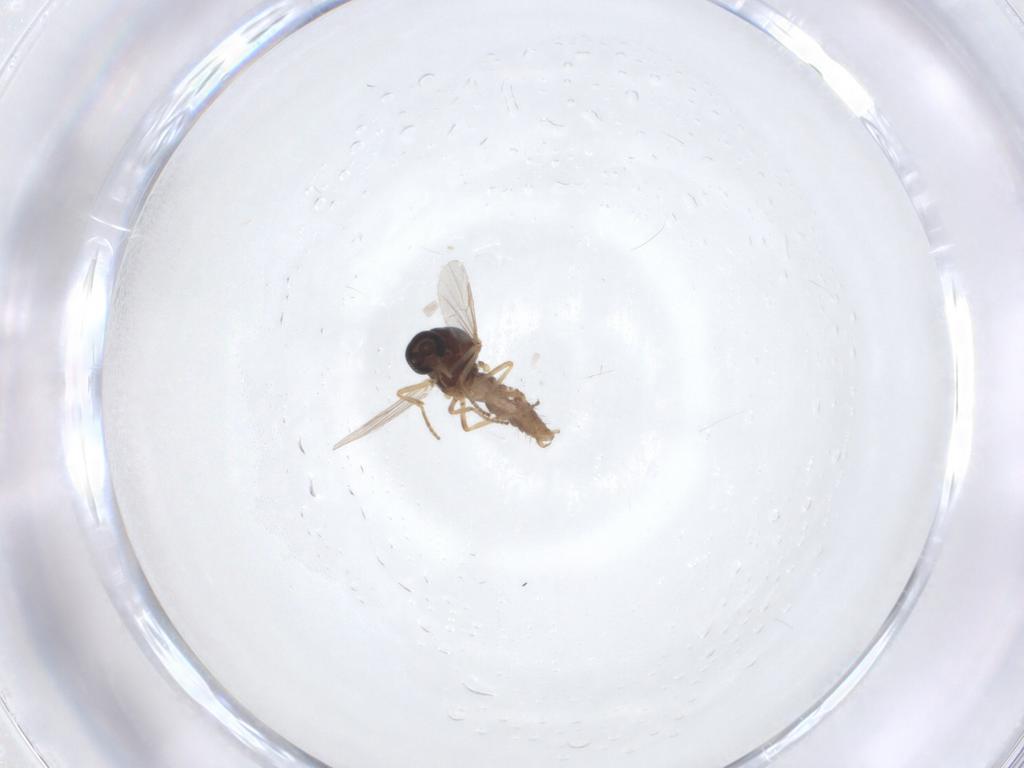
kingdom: Animalia
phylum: Arthropoda
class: Insecta
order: Diptera
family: Ceratopogonidae
